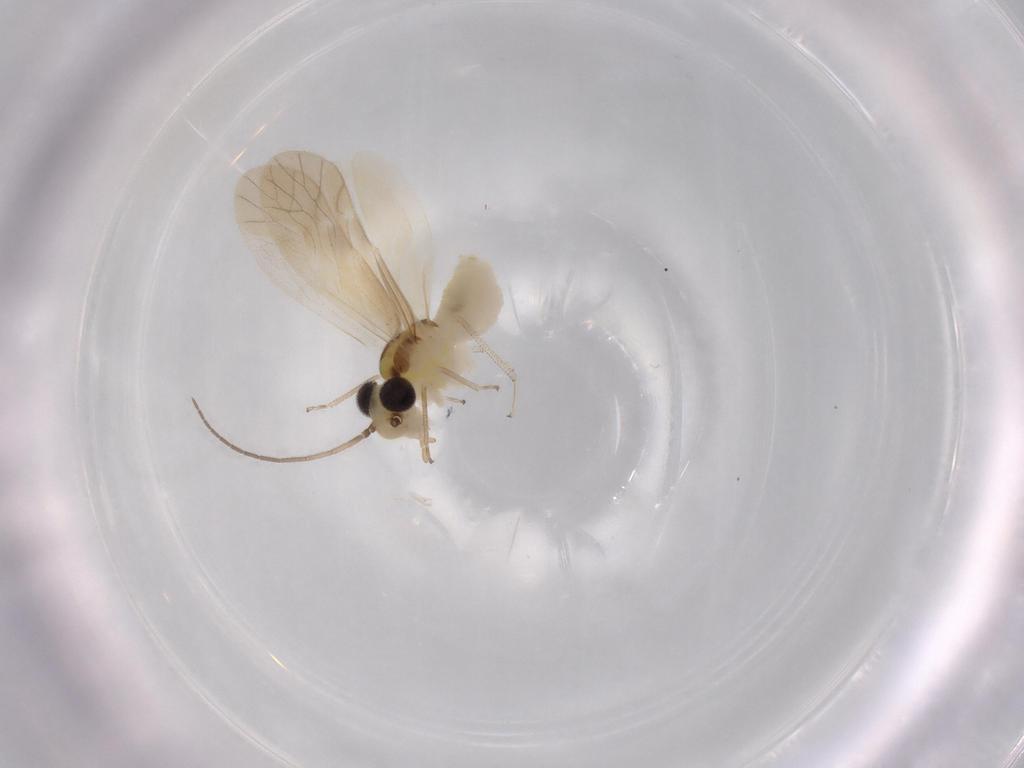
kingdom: Animalia
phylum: Arthropoda
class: Insecta
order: Psocodea
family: Caeciliusidae
